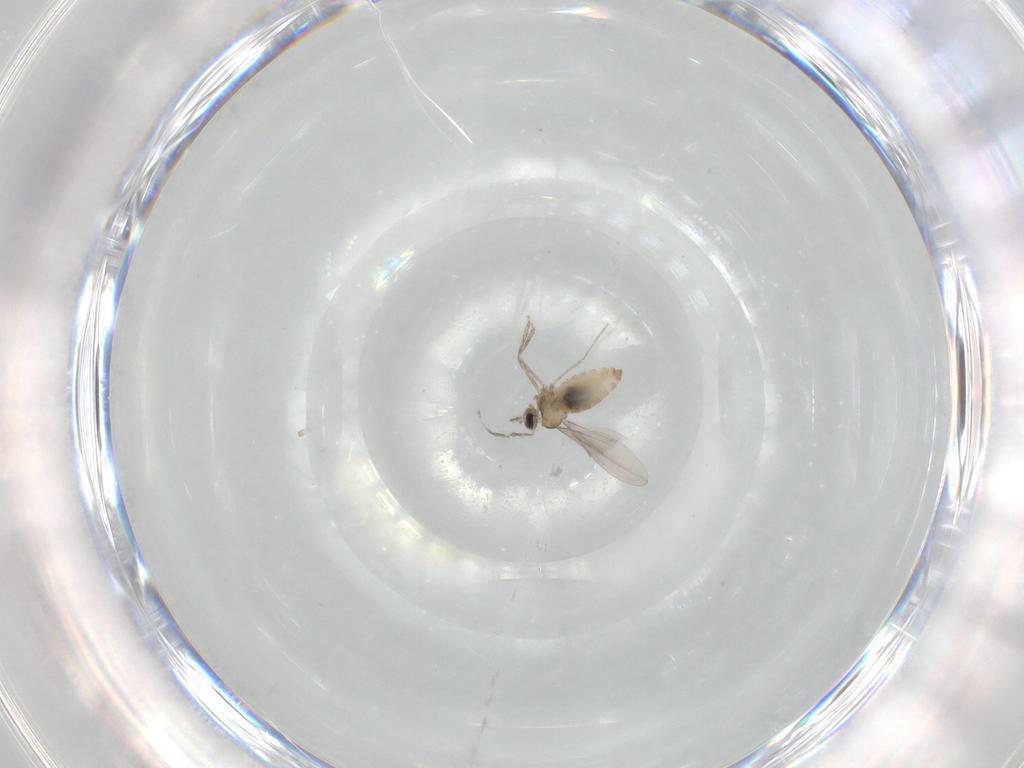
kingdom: Animalia
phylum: Arthropoda
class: Insecta
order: Diptera
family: Cecidomyiidae
